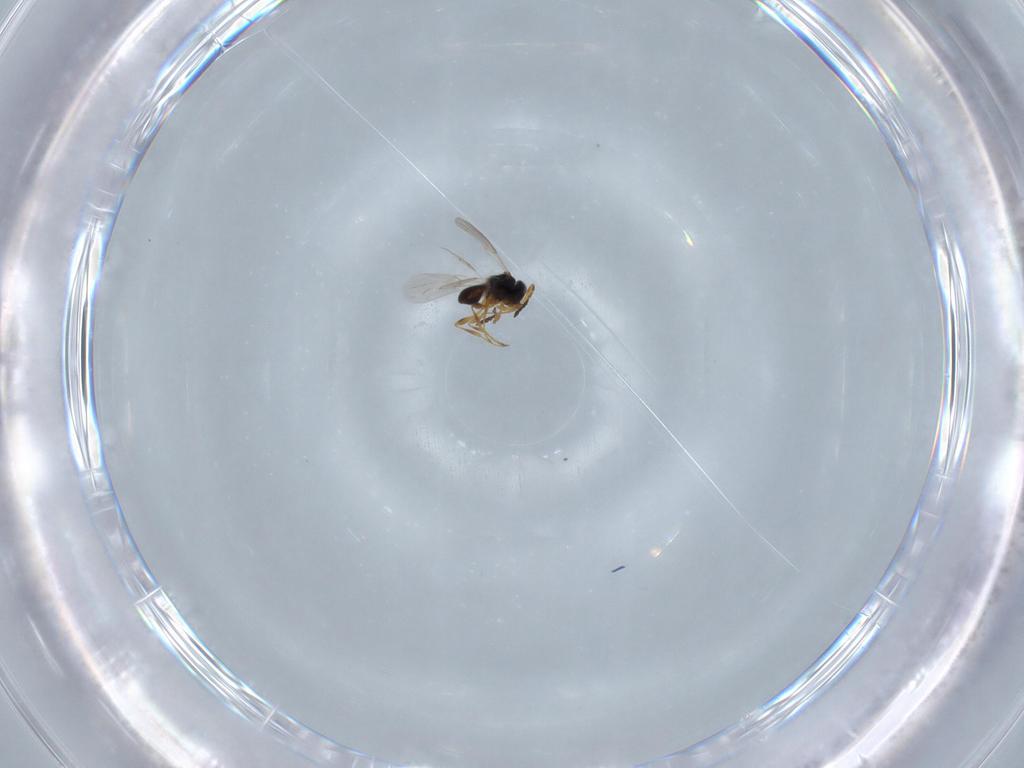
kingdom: Animalia
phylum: Arthropoda
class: Insecta
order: Hymenoptera
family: Platygastridae
